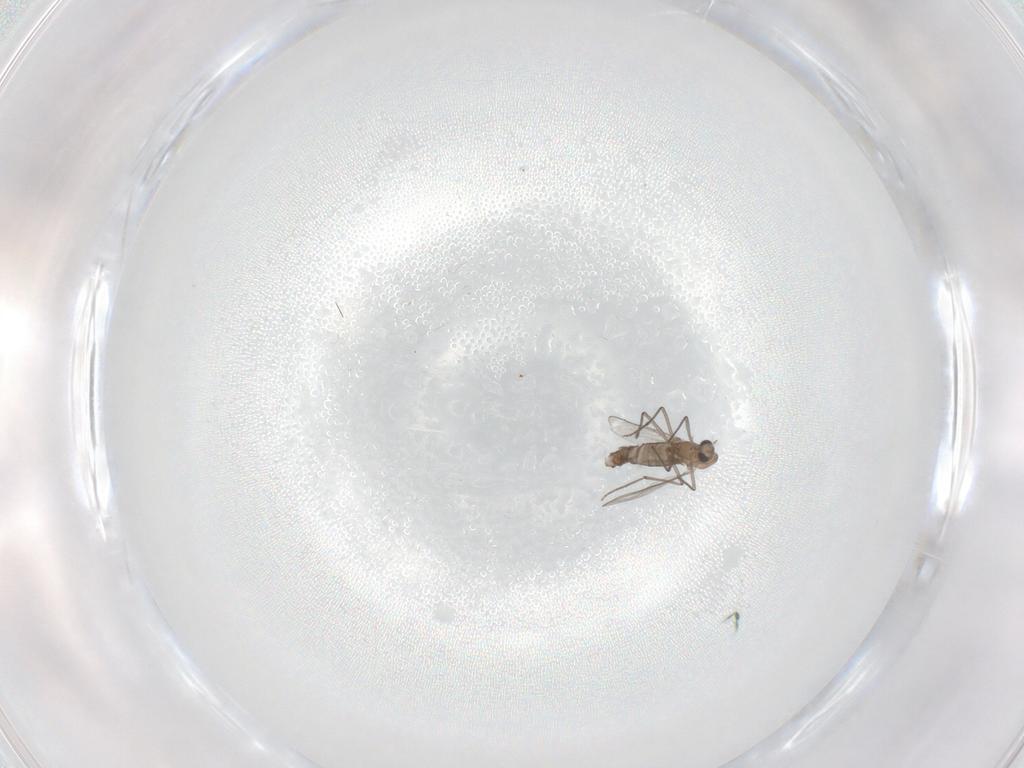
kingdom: Animalia
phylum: Arthropoda
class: Insecta
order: Diptera
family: Chironomidae
